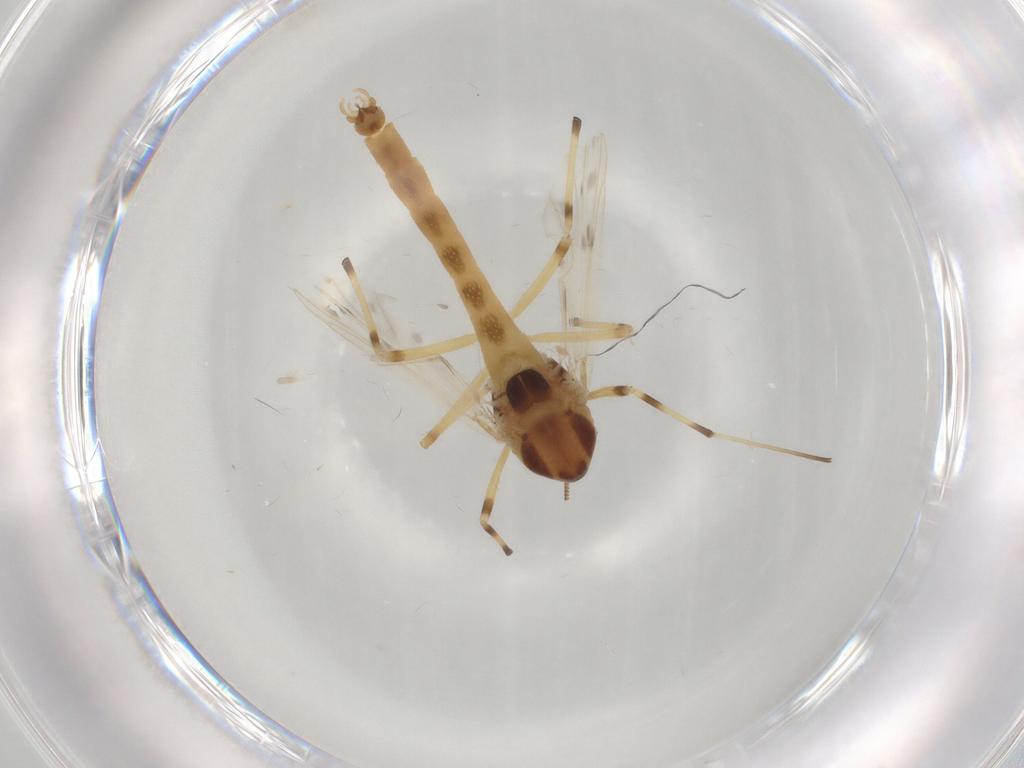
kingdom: Animalia
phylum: Arthropoda
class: Insecta
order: Diptera
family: Chironomidae
